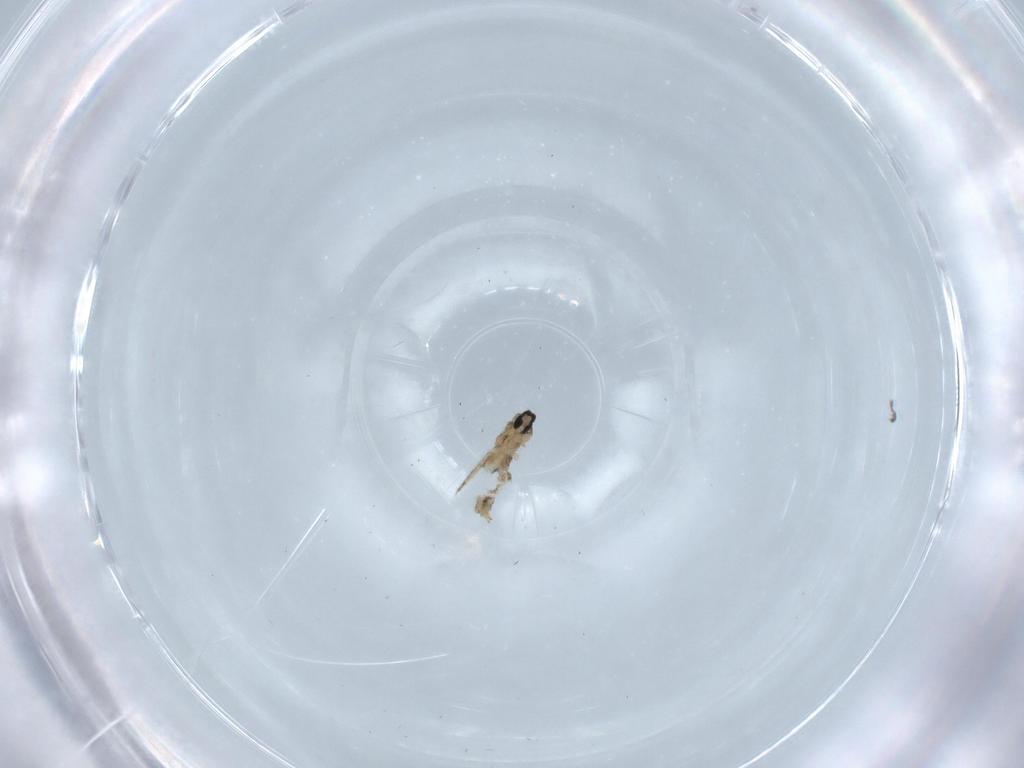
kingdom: Animalia
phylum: Arthropoda
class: Insecta
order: Diptera
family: Cecidomyiidae
